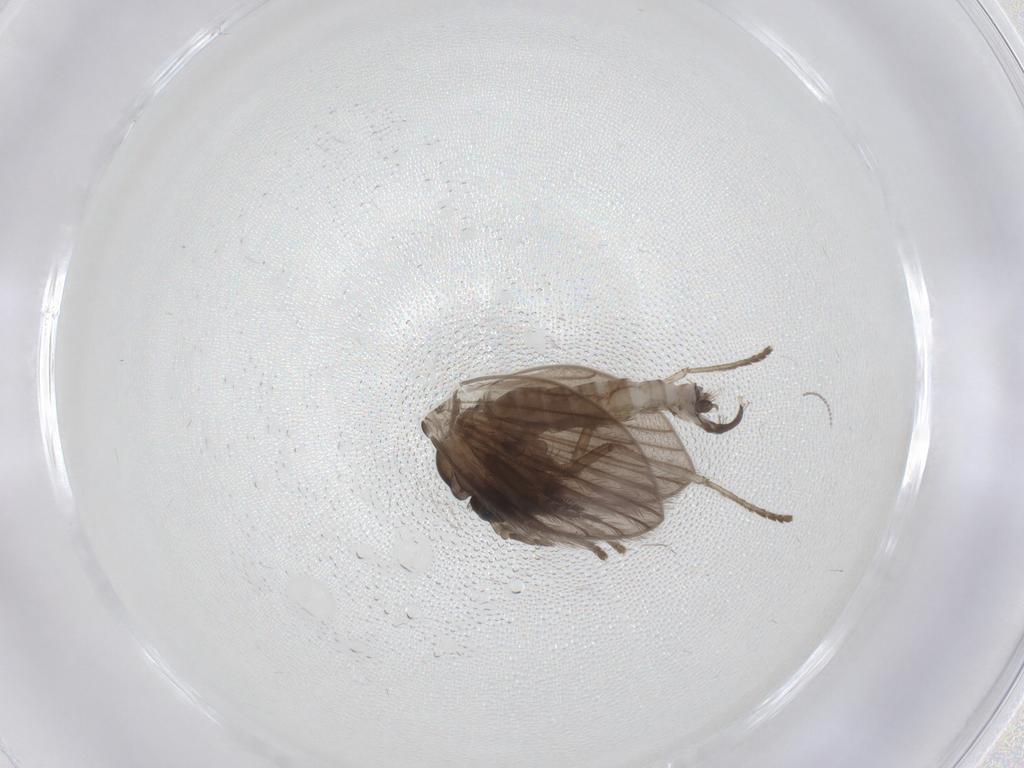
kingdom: Animalia
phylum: Arthropoda
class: Insecta
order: Diptera
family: Psychodidae
